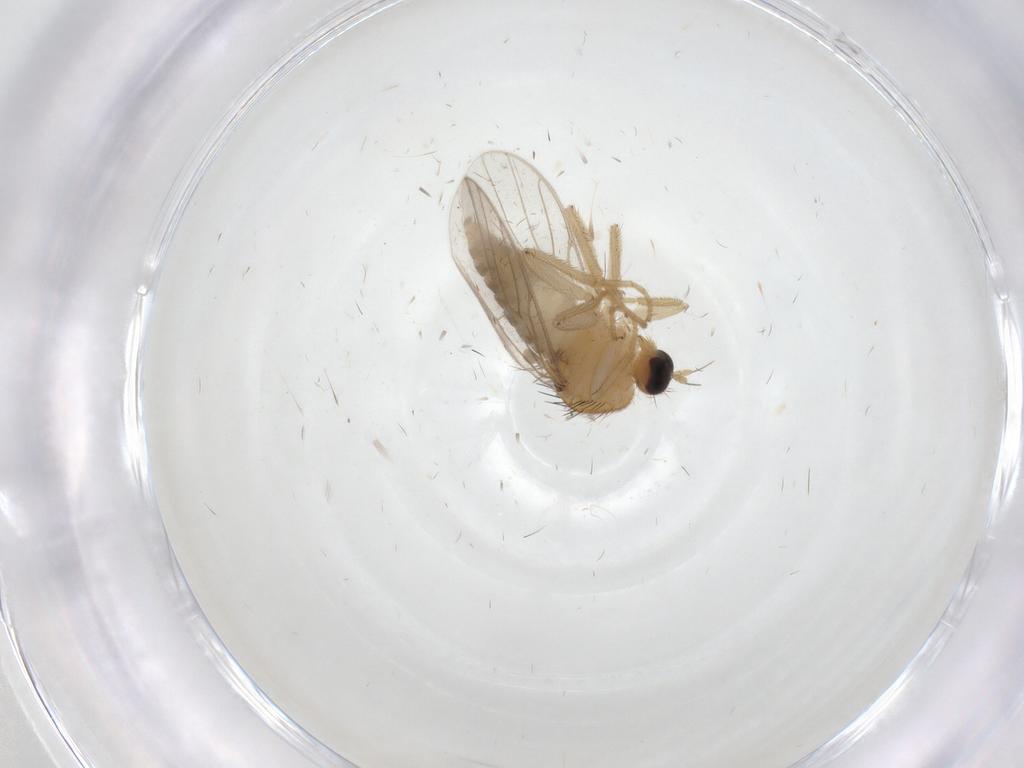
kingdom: Animalia
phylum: Arthropoda
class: Insecta
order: Diptera
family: Hybotidae
